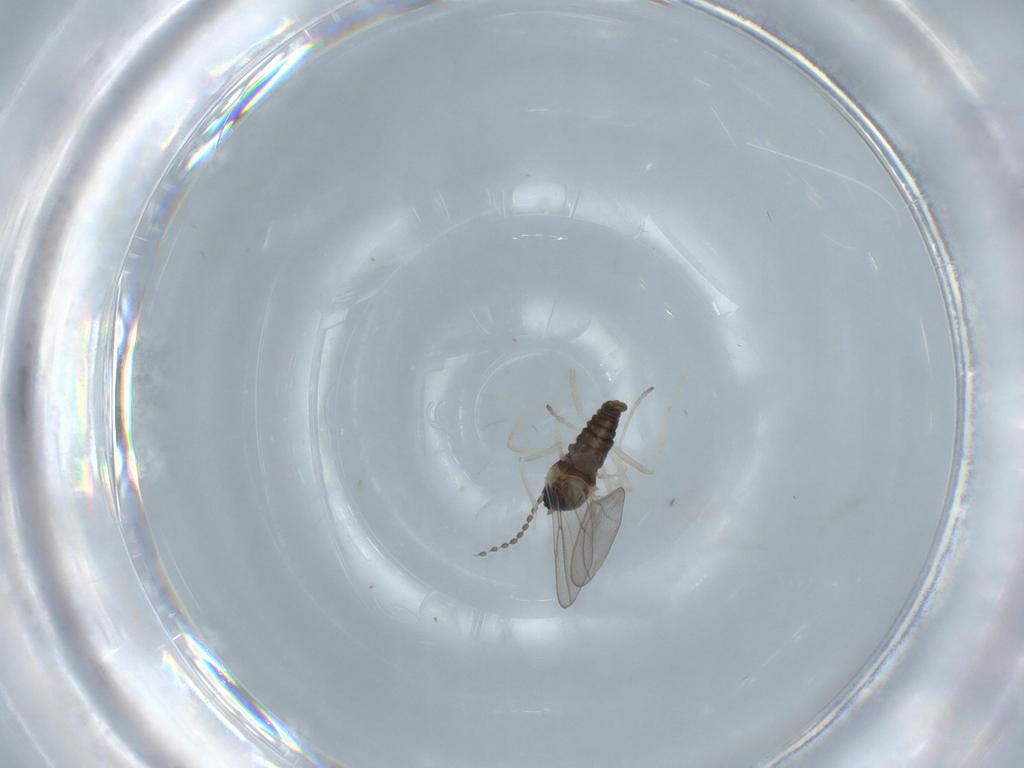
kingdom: Animalia
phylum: Arthropoda
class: Insecta
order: Diptera
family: Cecidomyiidae
